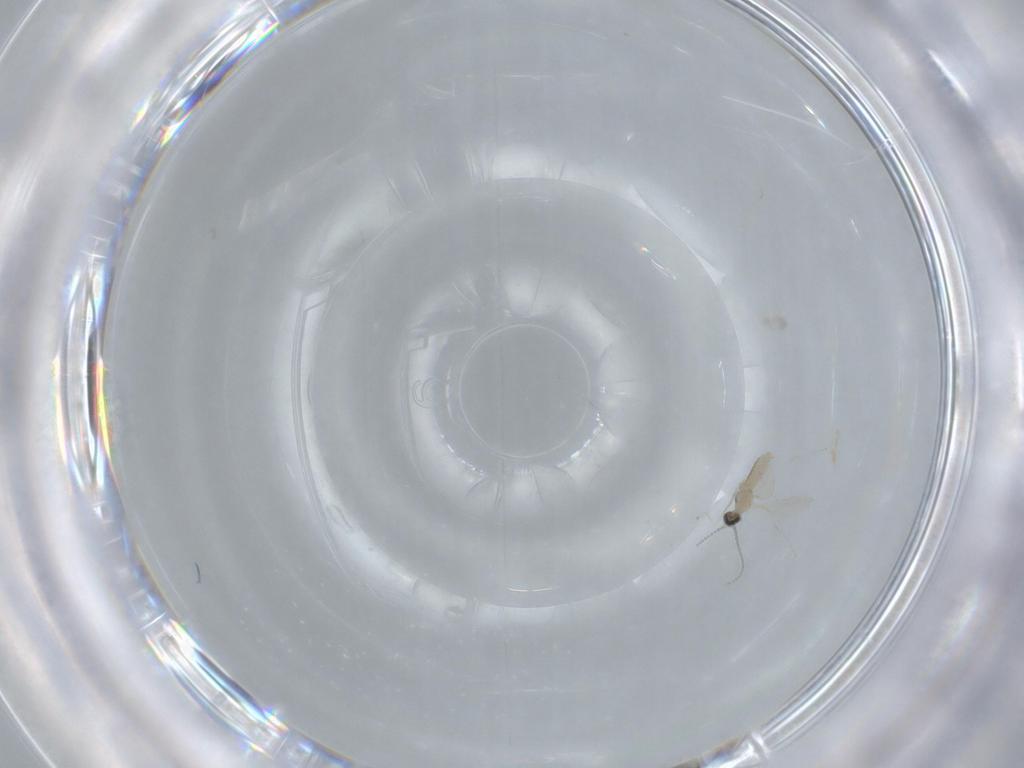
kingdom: Animalia
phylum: Arthropoda
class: Insecta
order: Diptera
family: Cecidomyiidae
